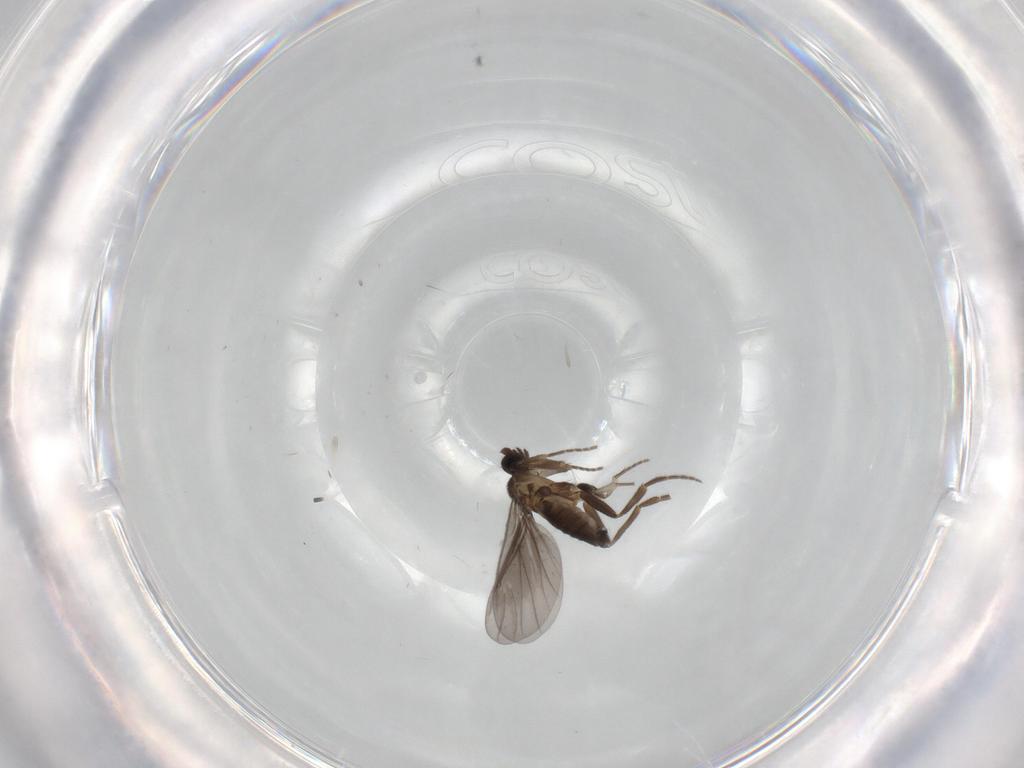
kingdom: Animalia
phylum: Arthropoda
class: Insecta
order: Diptera
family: Phoridae
